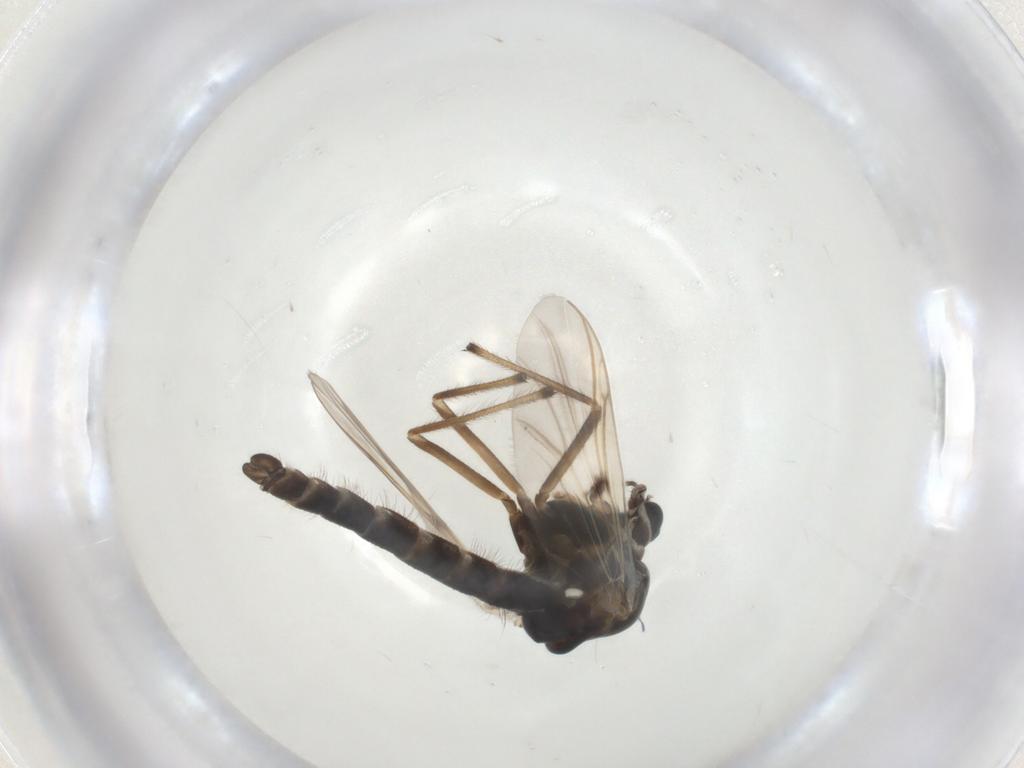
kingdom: Animalia
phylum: Arthropoda
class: Insecta
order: Diptera
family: Chironomidae
